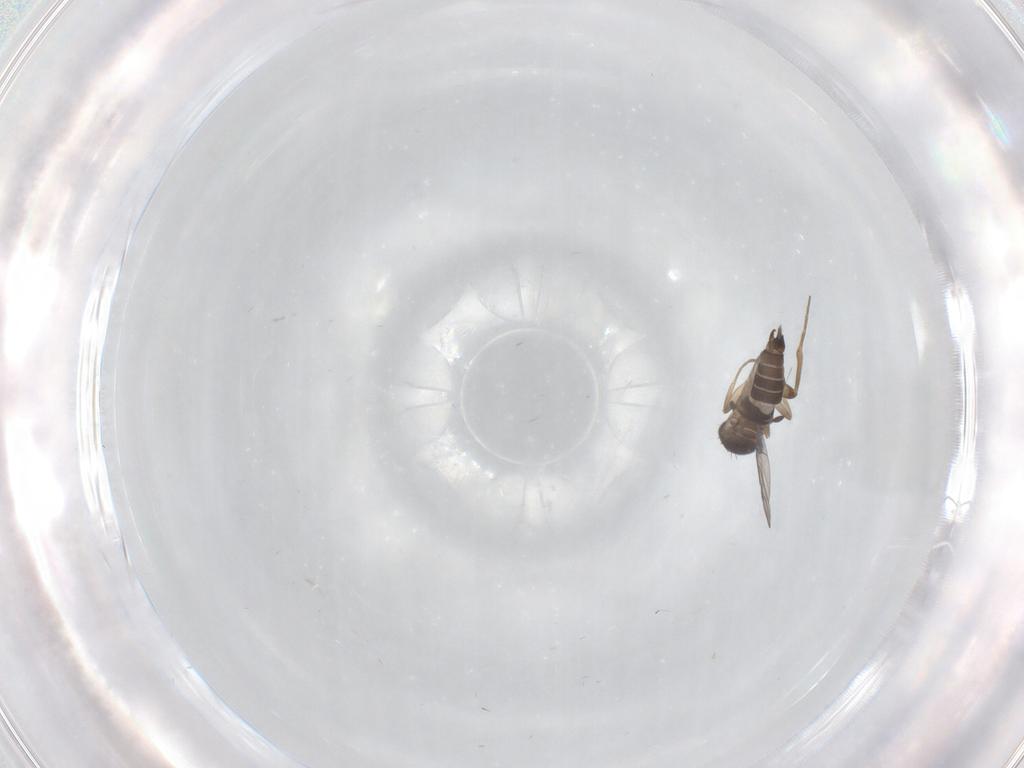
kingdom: Animalia
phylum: Arthropoda
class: Insecta
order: Diptera
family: Phoridae
